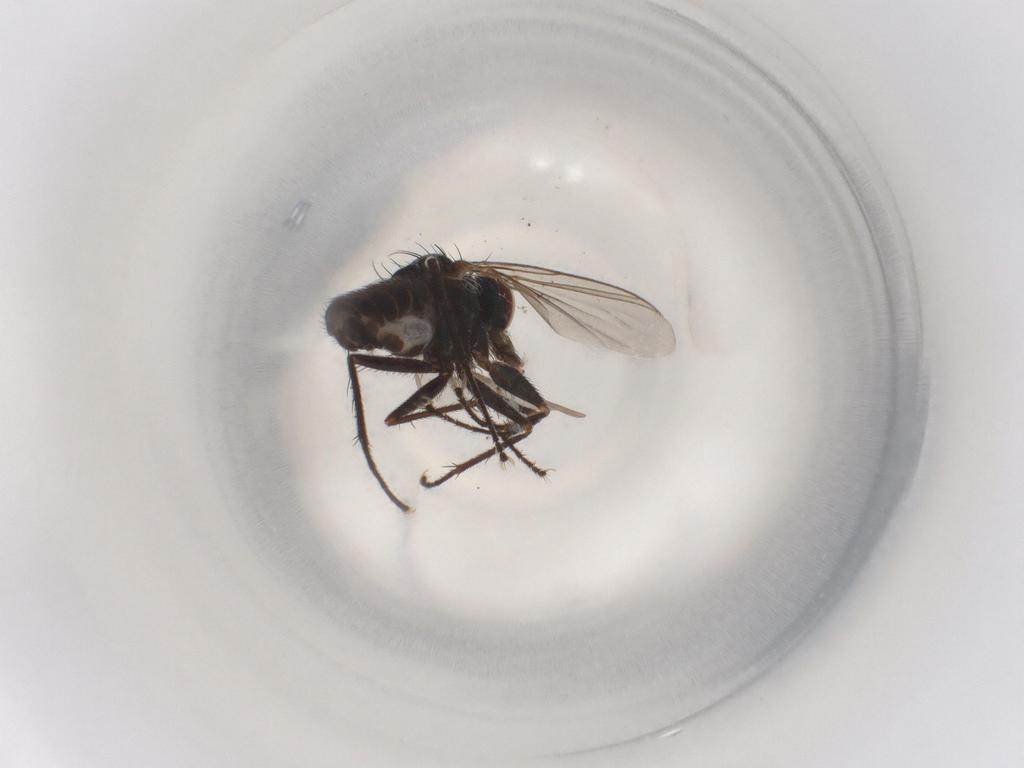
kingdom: Animalia
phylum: Arthropoda
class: Insecta
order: Diptera
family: Dolichopodidae
